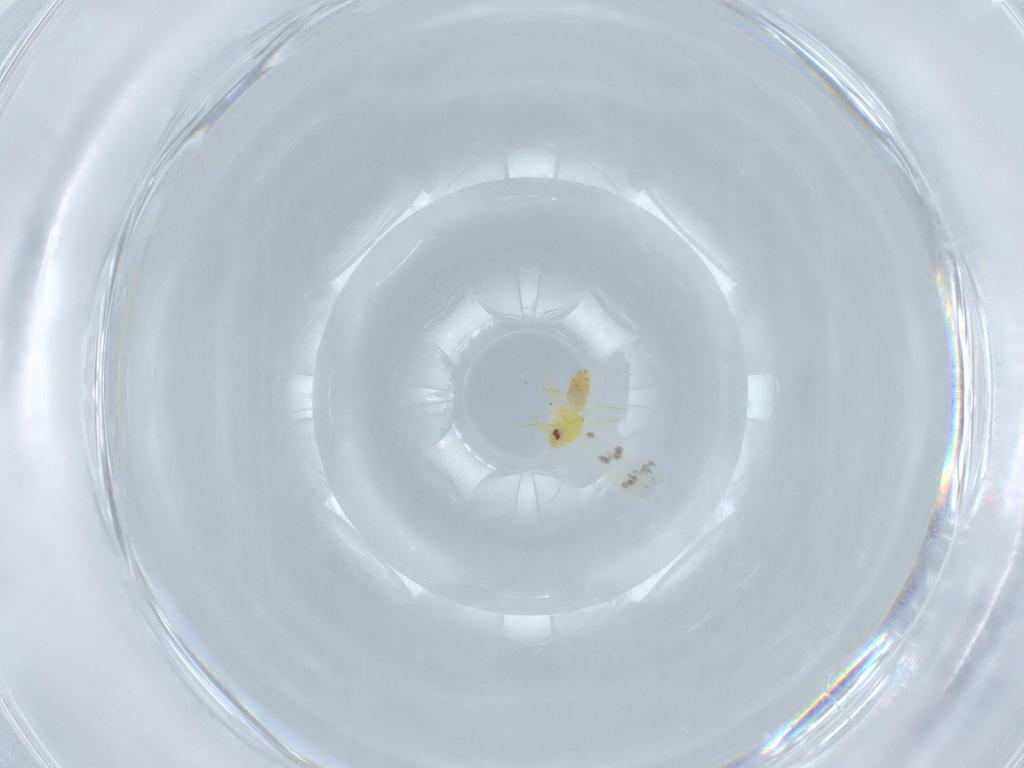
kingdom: Animalia
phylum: Arthropoda
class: Insecta
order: Hemiptera
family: Aleyrodidae
